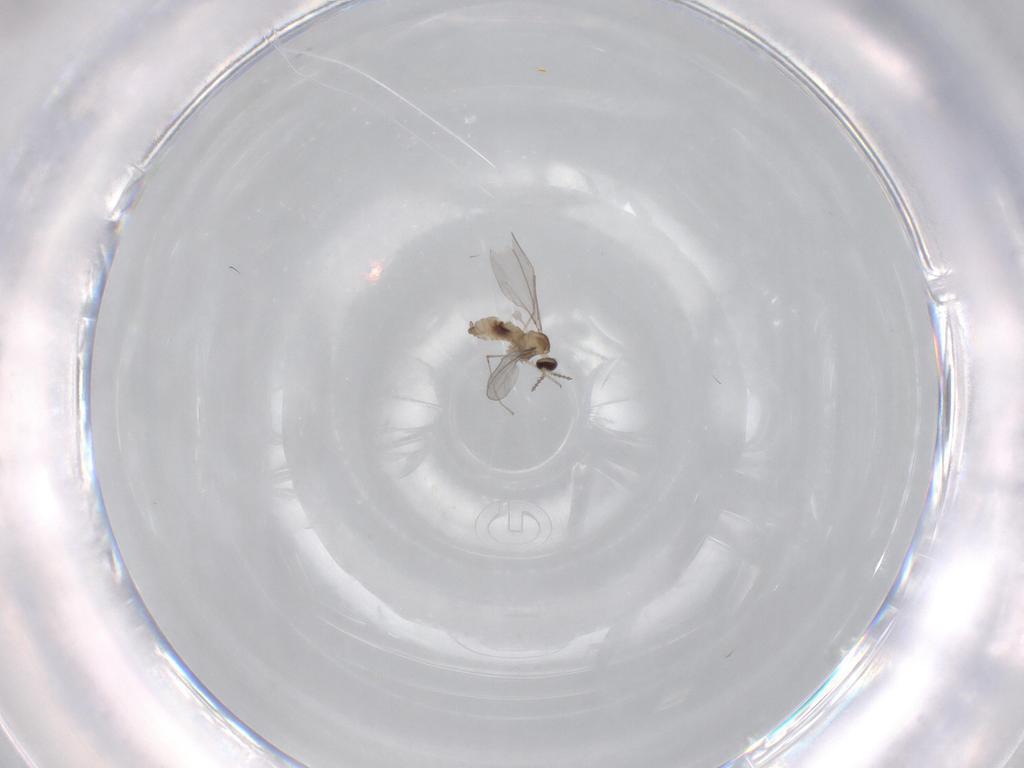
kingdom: Animalia
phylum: Arthropoda
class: Insecta
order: Diptera
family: Cecidomyiidae
